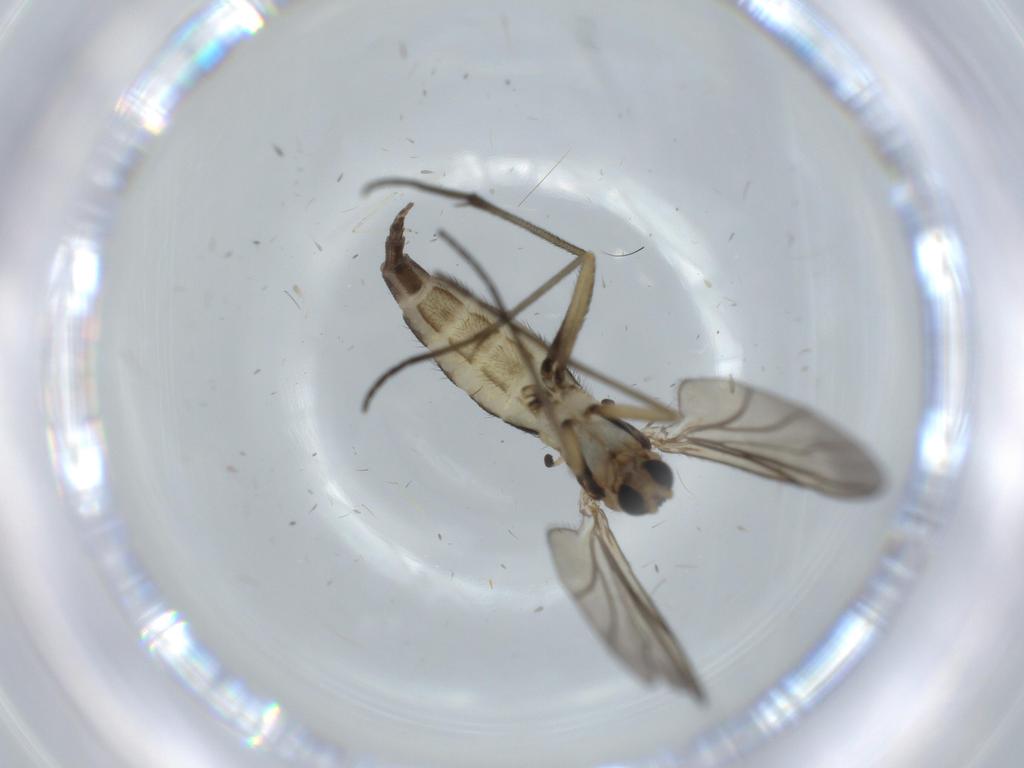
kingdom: Animalia
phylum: Arthropoda
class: Insecta
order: Diptera
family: Sciaridae
